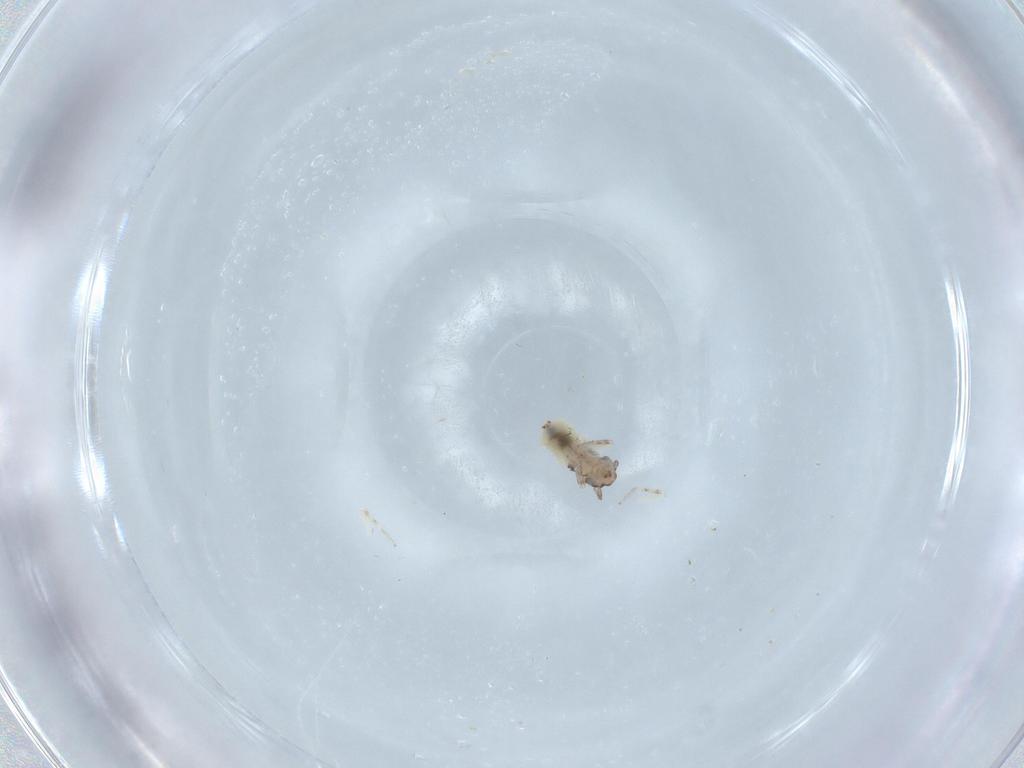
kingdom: Animalia
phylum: Arthropoda
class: Insecta
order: Psocodea
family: Lepidopsocidae
